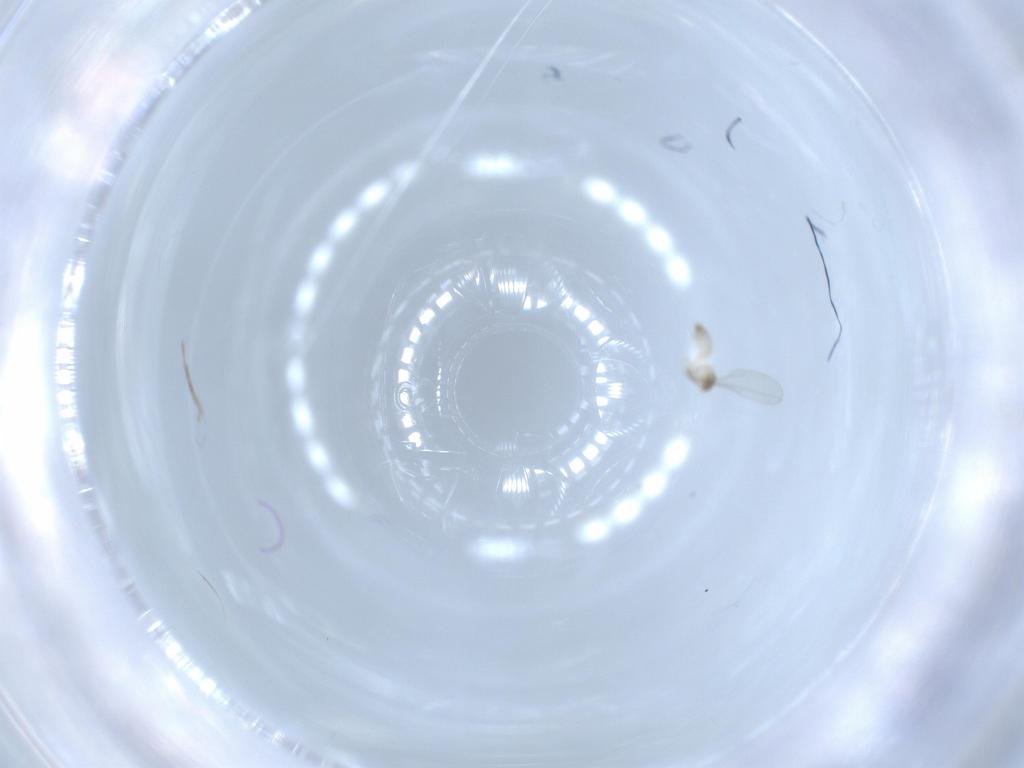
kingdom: Animalia
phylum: Arthropoda
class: Insecta
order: Diptera
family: Cecidomyiidae
